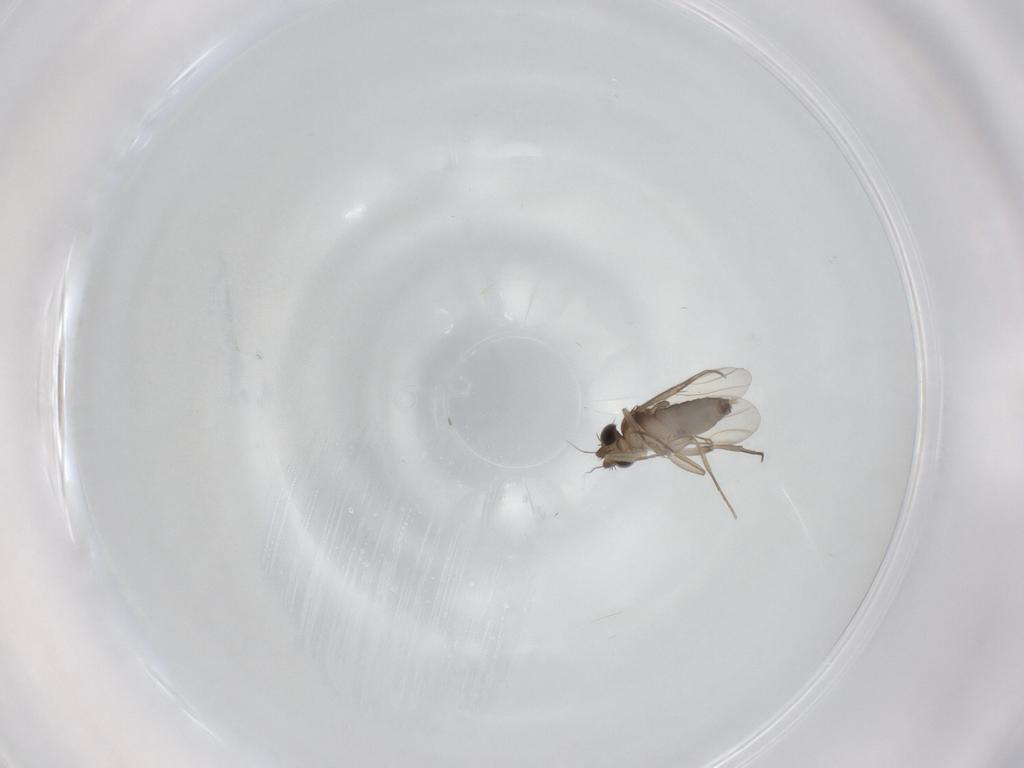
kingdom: Animalia
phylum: Arthropoda
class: Insecta
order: Diptera
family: Phoridae
